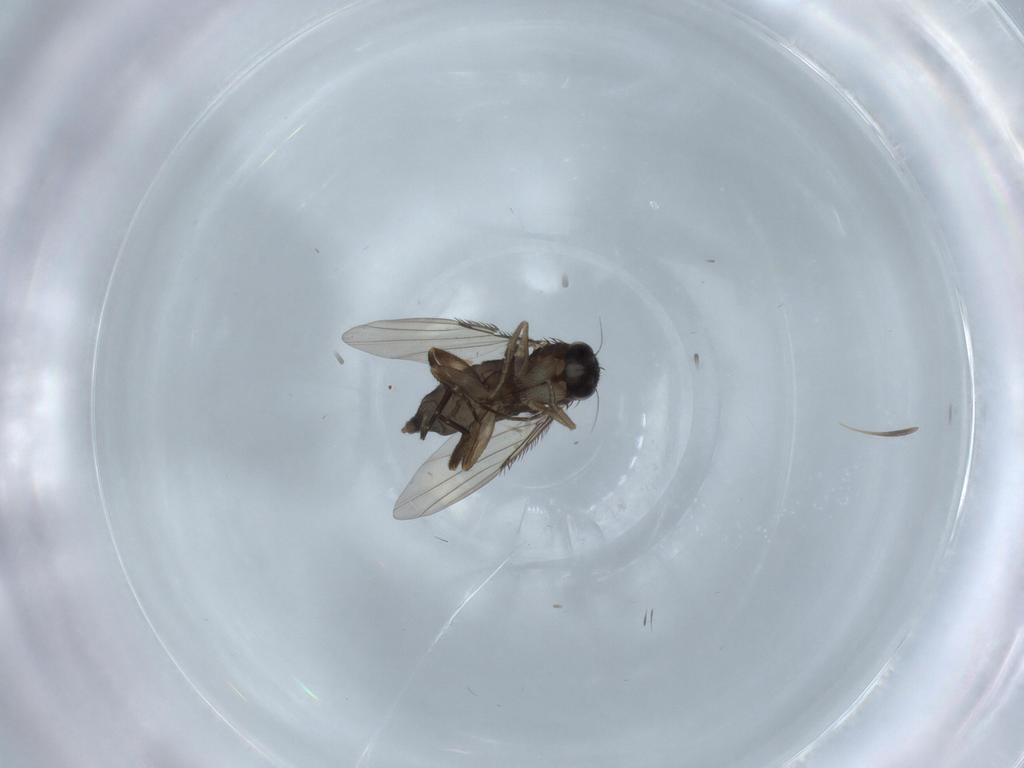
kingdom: Animalia
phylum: Arthropoda
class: Insecta
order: Diptera
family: Phoridae
